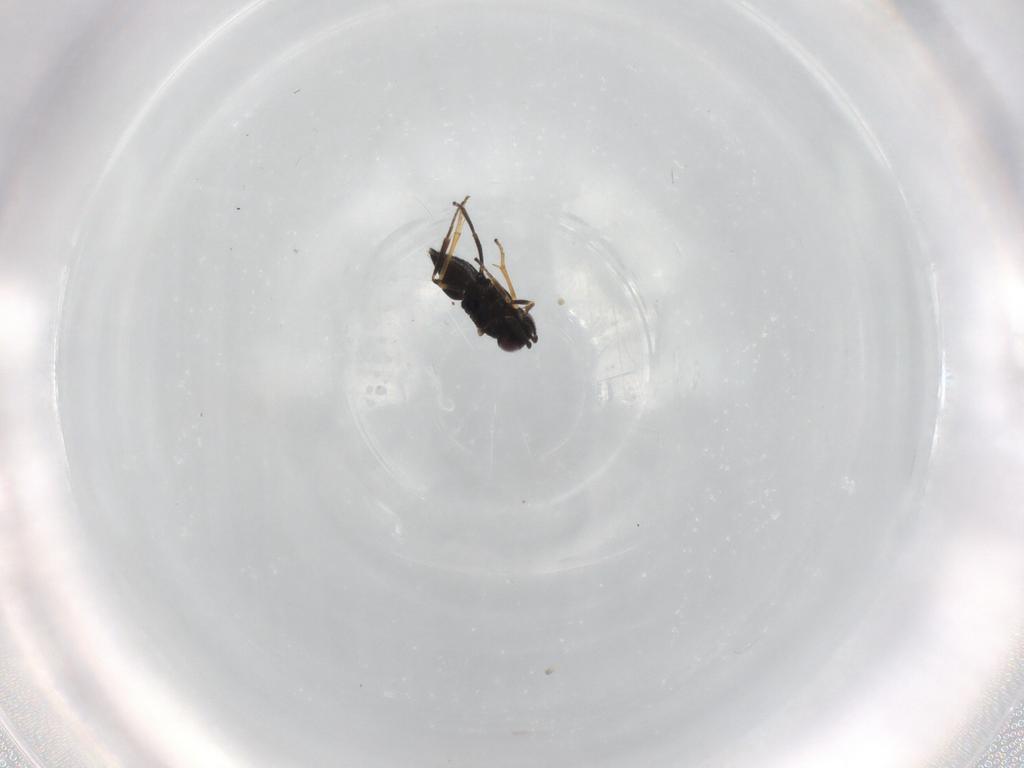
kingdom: Animalia
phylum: Arthropoda
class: Insecta
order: Hymenoptera
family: Encyrtidae
